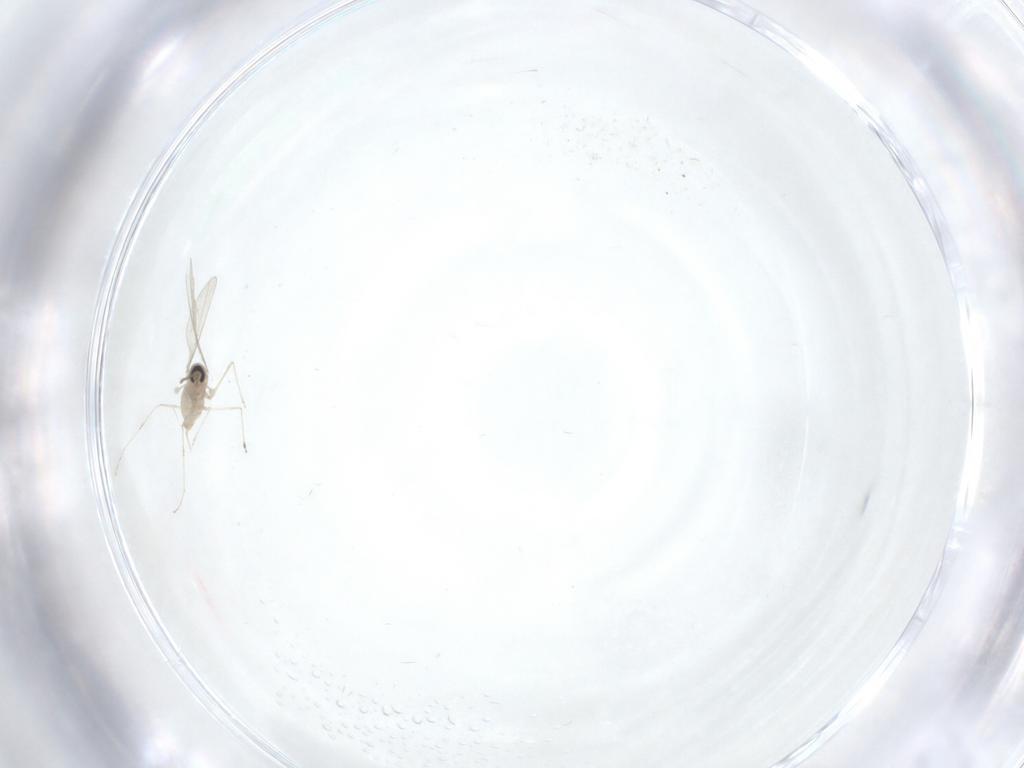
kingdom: Animalia
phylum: Arthropoda
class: Insecta
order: Diptera
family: Cecidomyiidae
